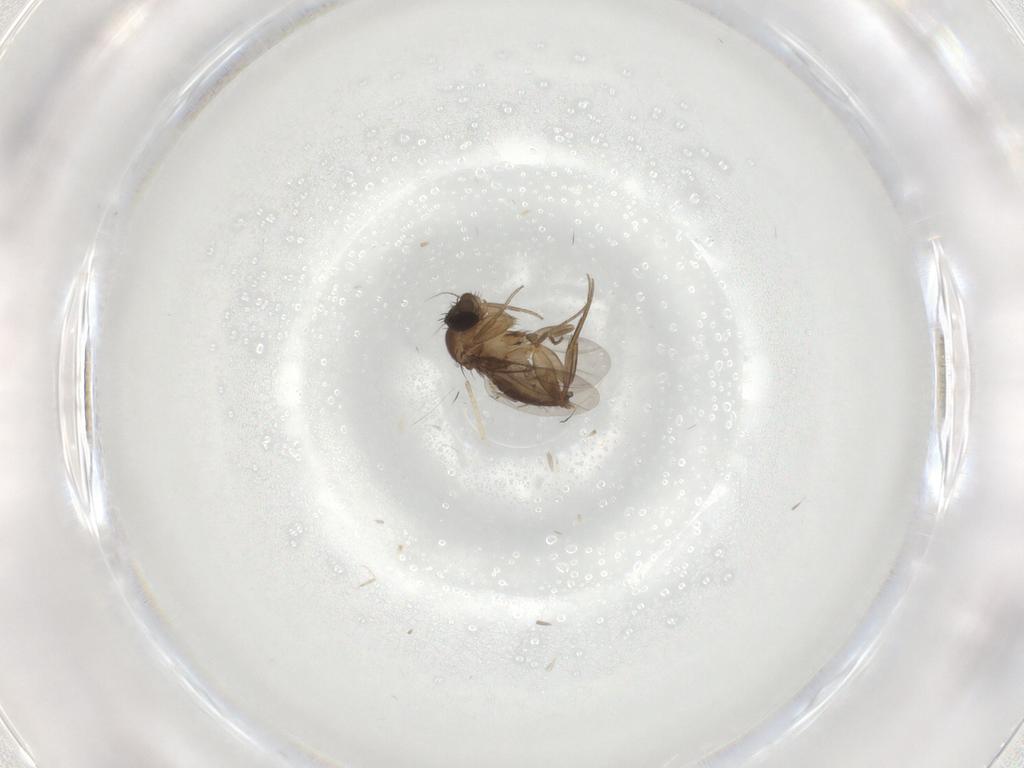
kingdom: Animalia
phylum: Arthropoda
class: Insecta
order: Diptera
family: Phoridae
